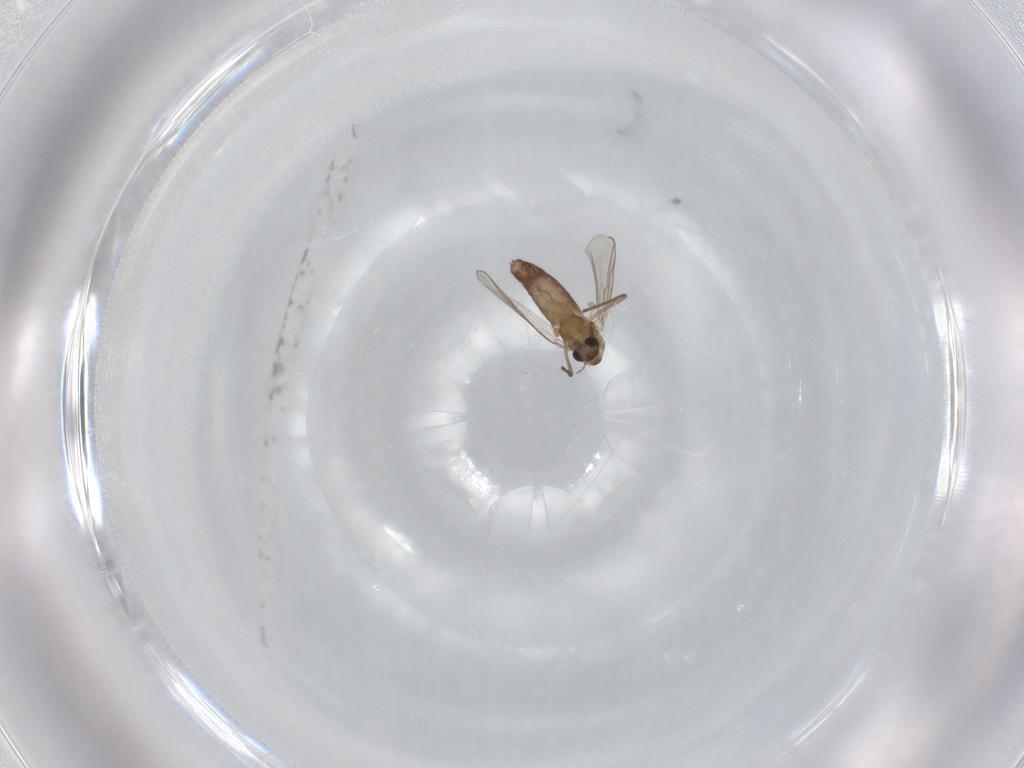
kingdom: Animalia
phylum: Arthropoda
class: Insecta
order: Diptera
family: Chironomidae
